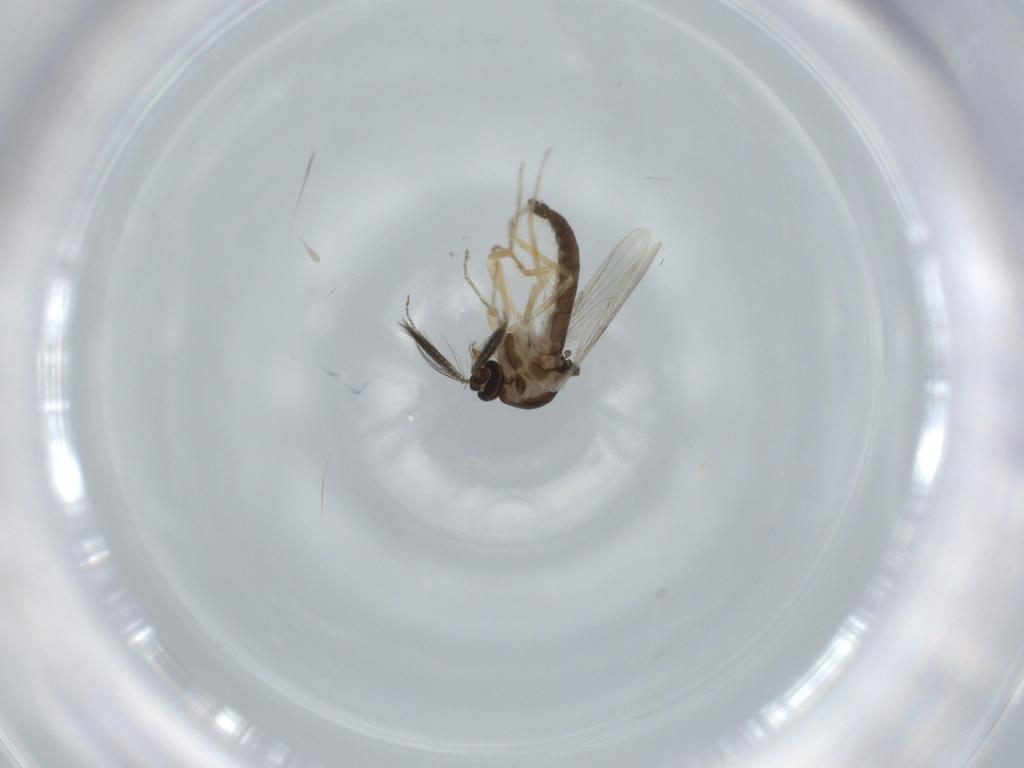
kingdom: Animalia
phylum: Arthropoda
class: Insecta
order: Diptera
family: Ceratopogonidae
